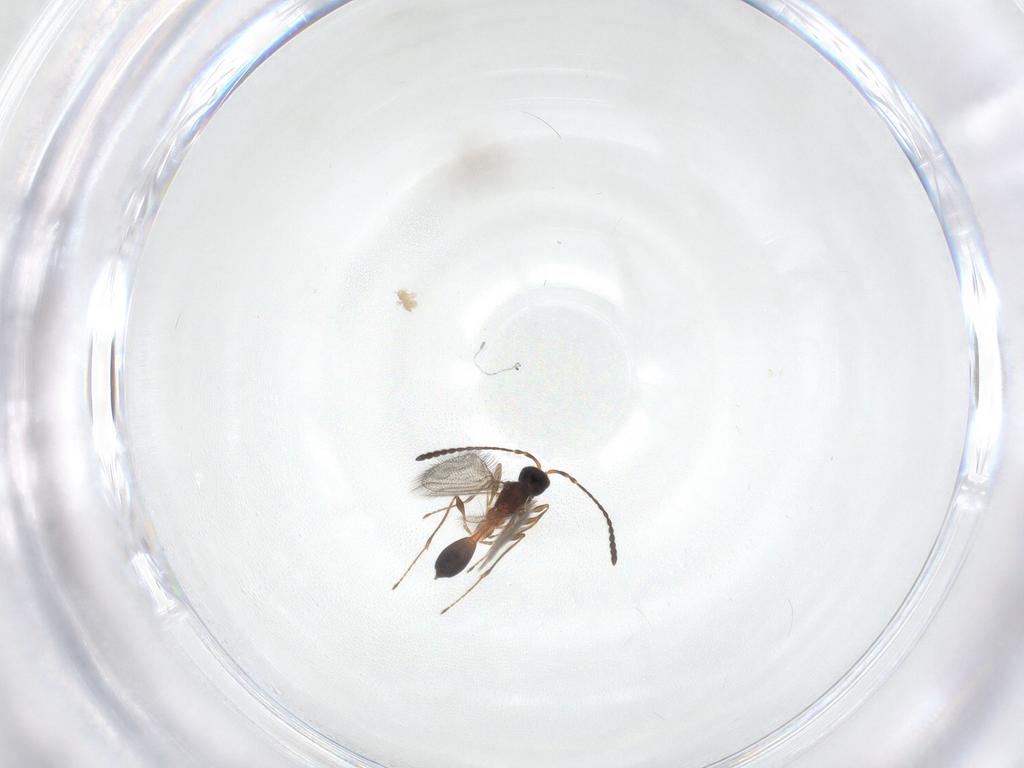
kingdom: Animalia
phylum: Arthropoda
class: Insecta
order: Hymenoptera
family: Diapriidae
